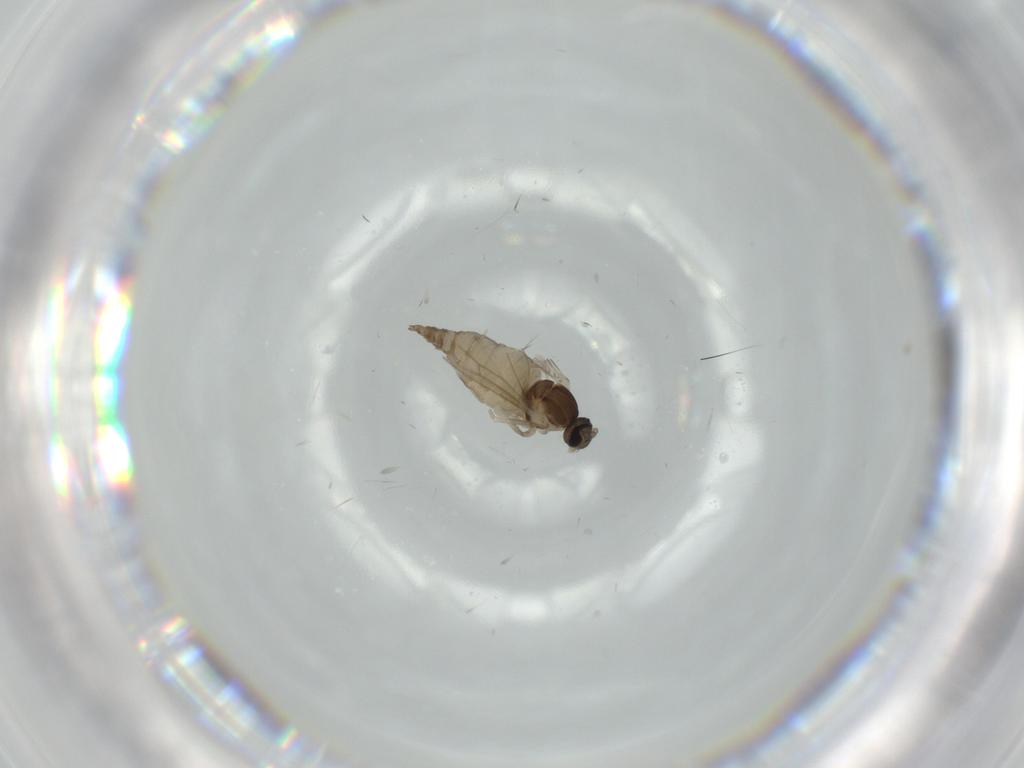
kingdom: Animalia
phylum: Arthropoda
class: Insecta
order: Diptera
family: Cecidomyiidae
